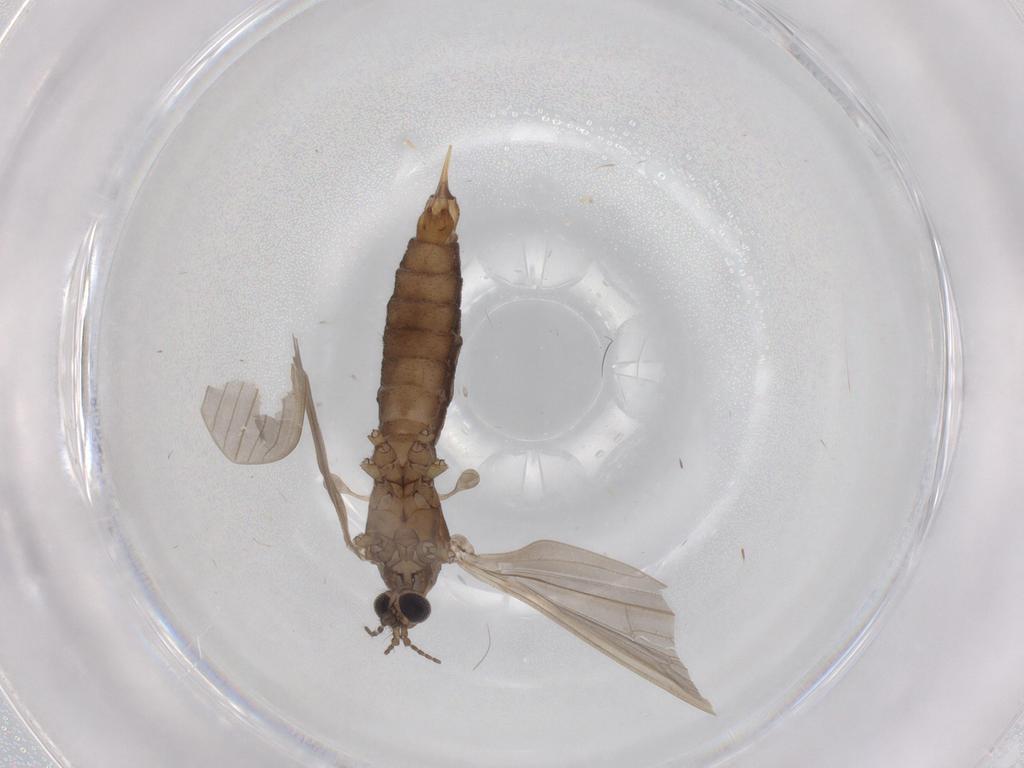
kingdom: Animalia
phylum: Arthropoda
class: Insecta
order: Diptera
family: Limoniidae
